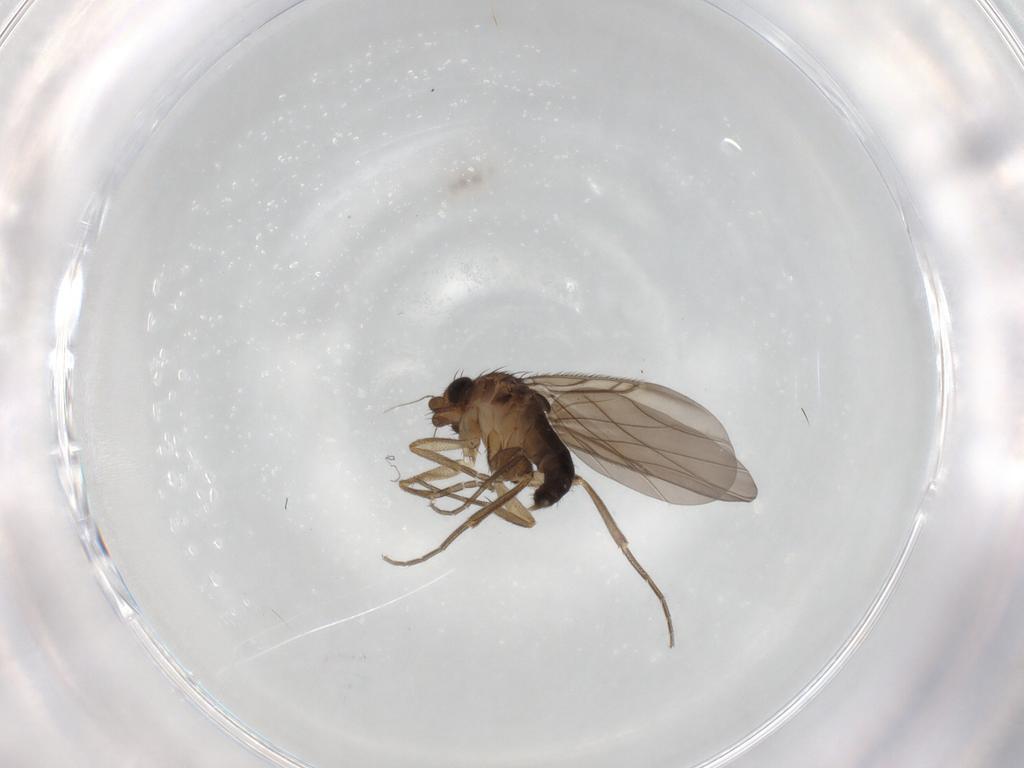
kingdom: Animalia
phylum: Arthropoda
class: Insecta
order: Diptera
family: Phoridae
